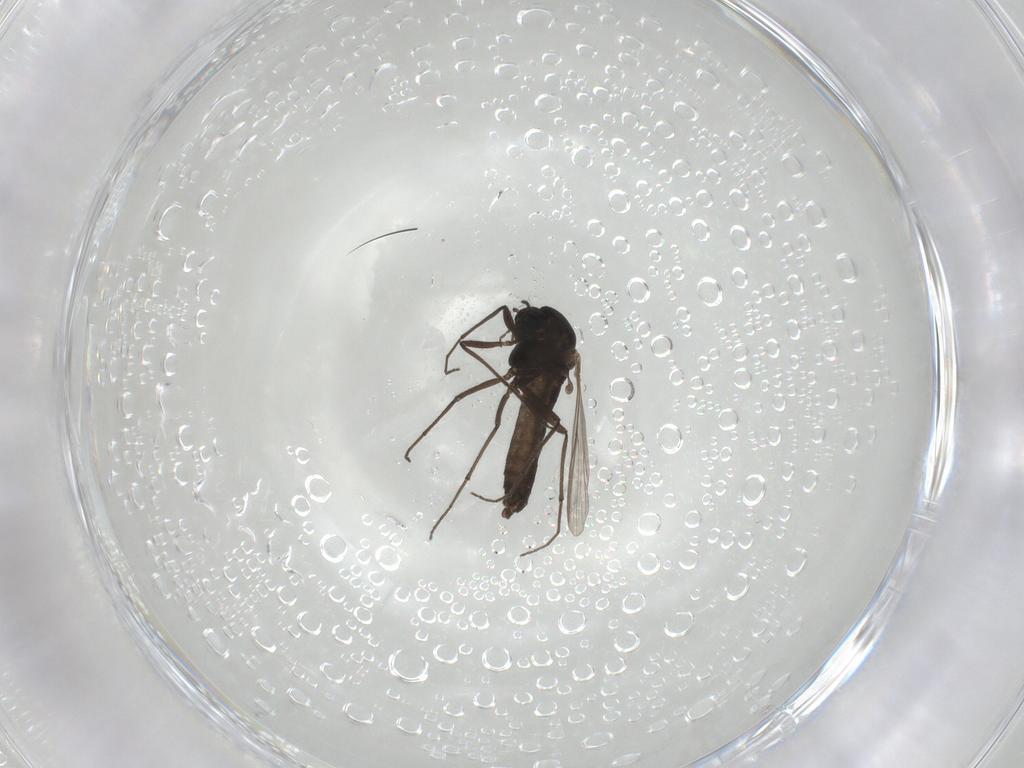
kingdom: Animalia
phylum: Arthropoda
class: Insecta
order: Diptera
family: Chironomidae
